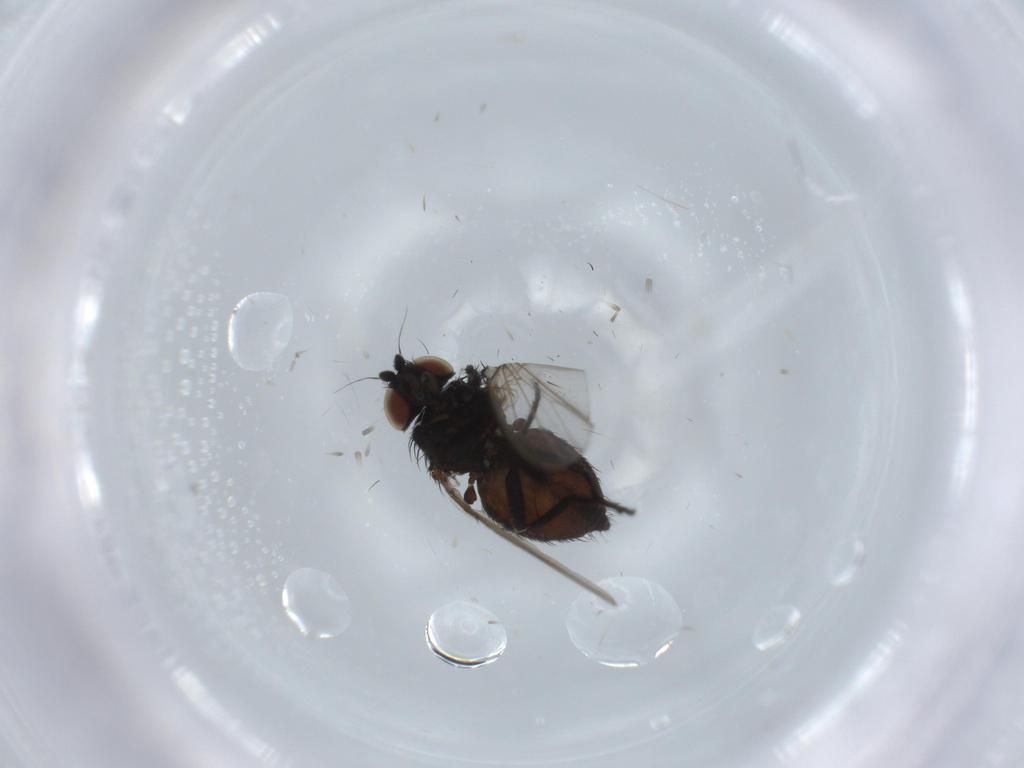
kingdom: Animalia
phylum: Arthropoda
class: Insecta
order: Diptera
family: Milichiidae
